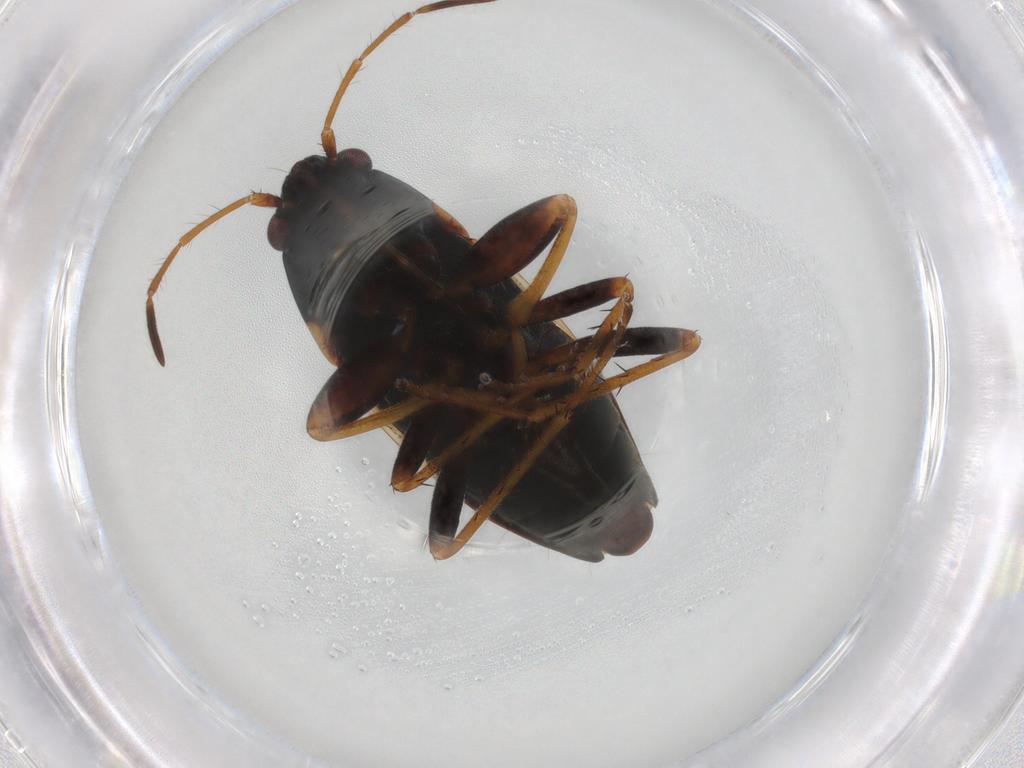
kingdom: Animalia
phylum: Arthropoda
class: Insecta
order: Hemiptera
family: Rhyparochromidae
